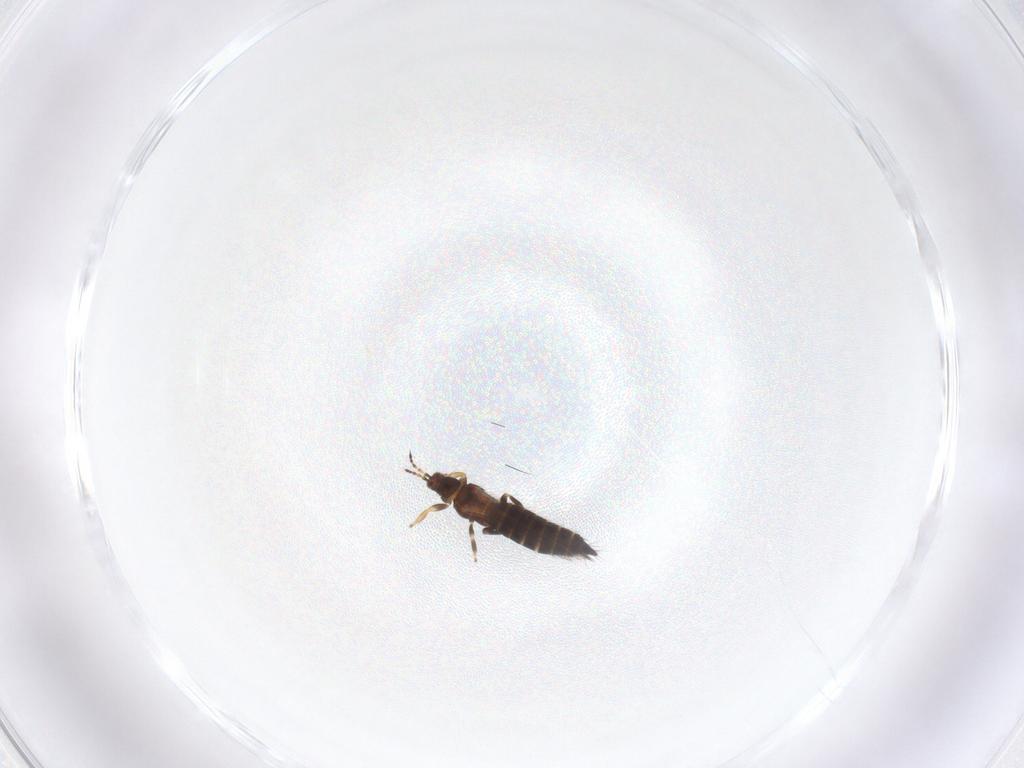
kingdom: Animalia
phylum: Arthropoda
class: Insecta
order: Thysanoptera
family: Thripidae
